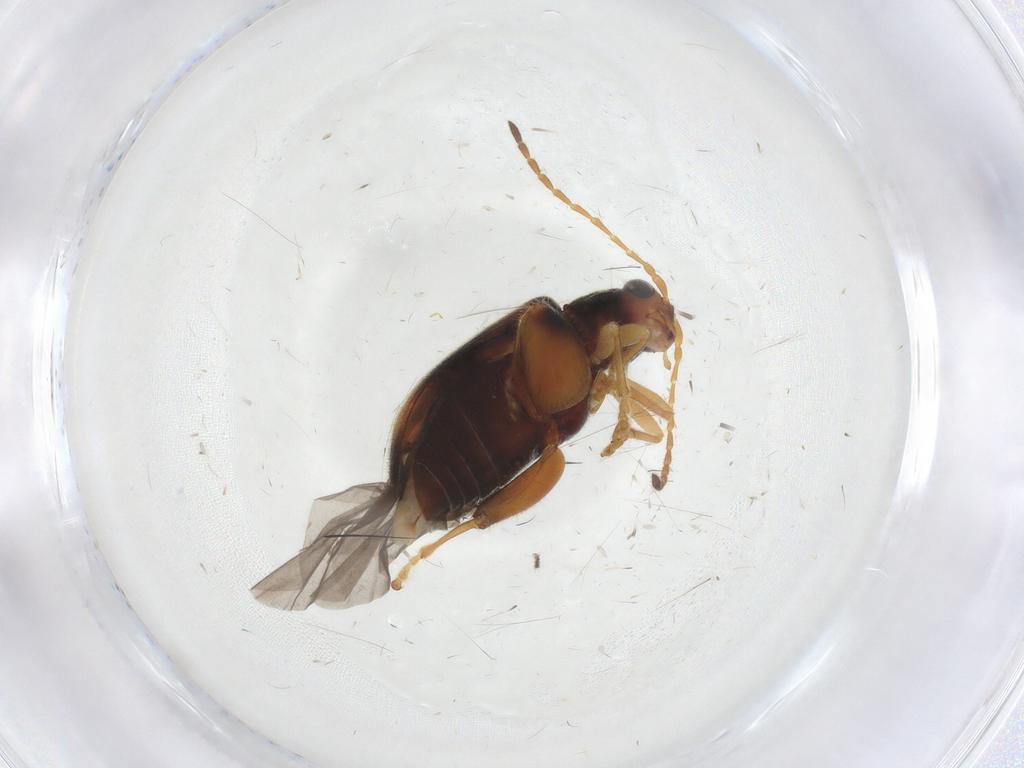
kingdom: Animalia
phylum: Arthropoda
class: Insecta
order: Coleoptera
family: Chrysomelidae
